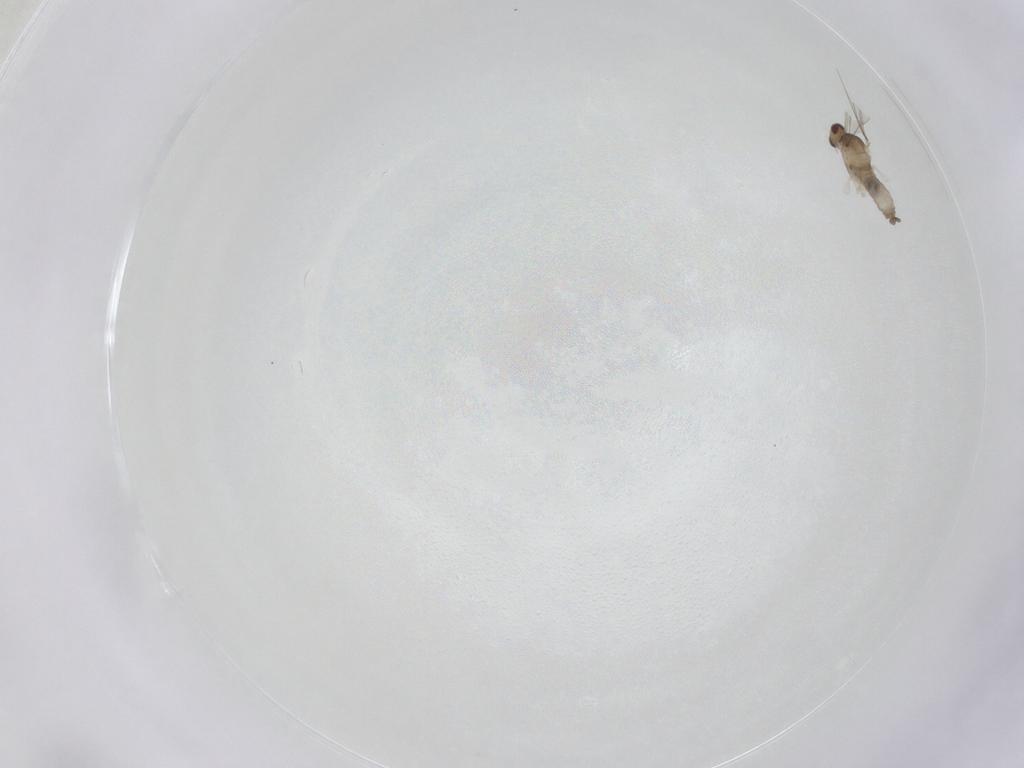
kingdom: Animalia
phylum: Arthropoda
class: Insecta
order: Diptera
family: Cecidomyiidae
